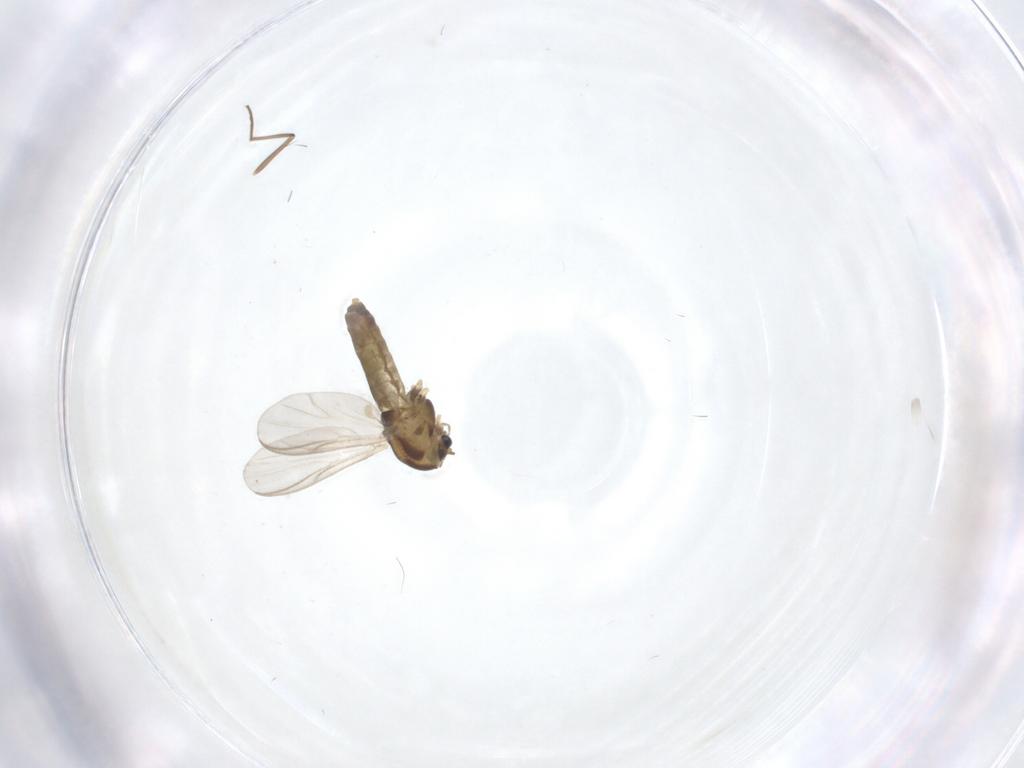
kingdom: Animalia
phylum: Arthropoda
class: Insecta
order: Diptera
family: Chironomidae
